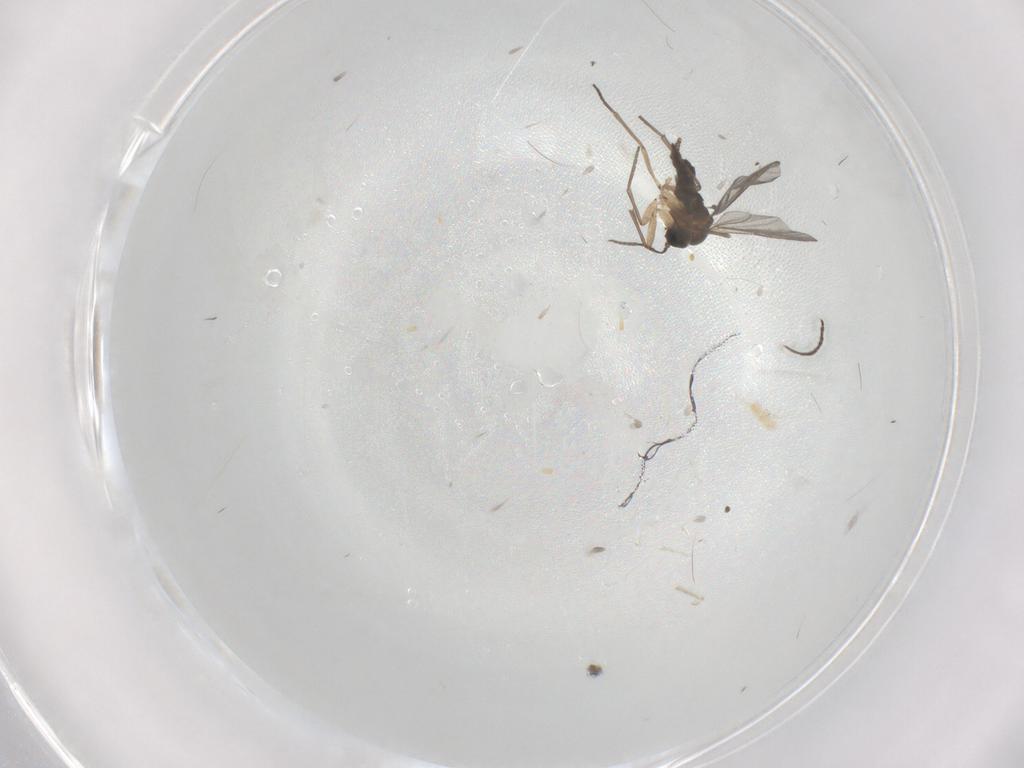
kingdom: Animalia
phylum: Arthropoda
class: Insecta
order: Diptera
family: Sciaridae
